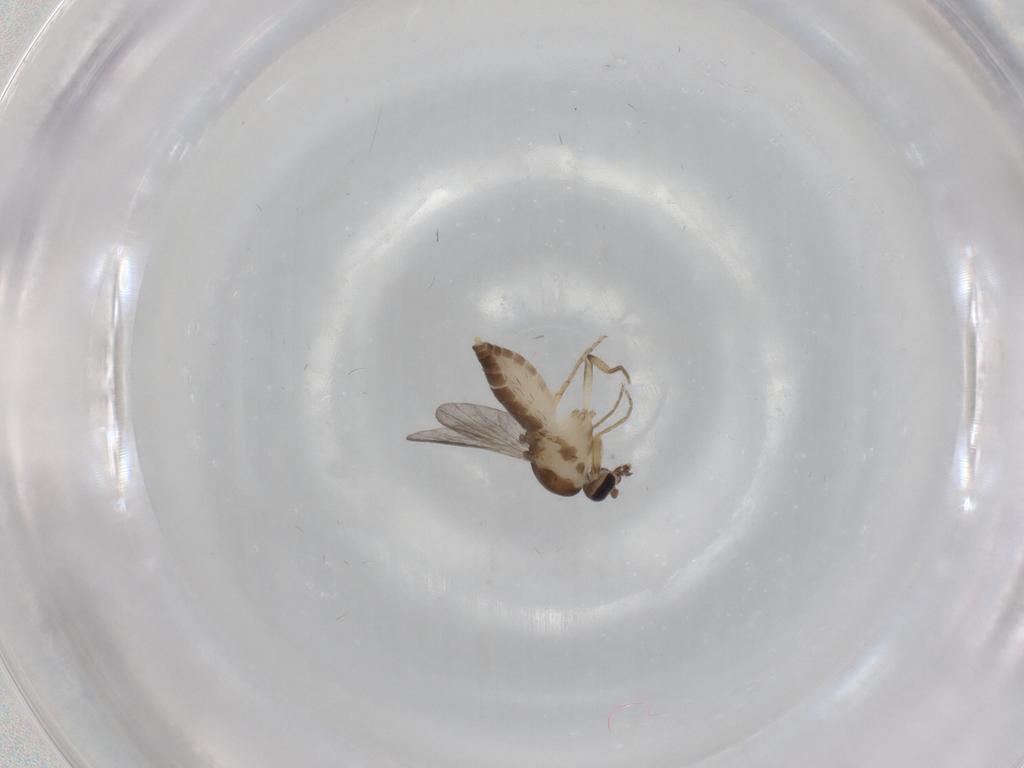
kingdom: Animalia
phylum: Arthropoda
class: Insecta
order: Diptera
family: Ceratopogonidae
